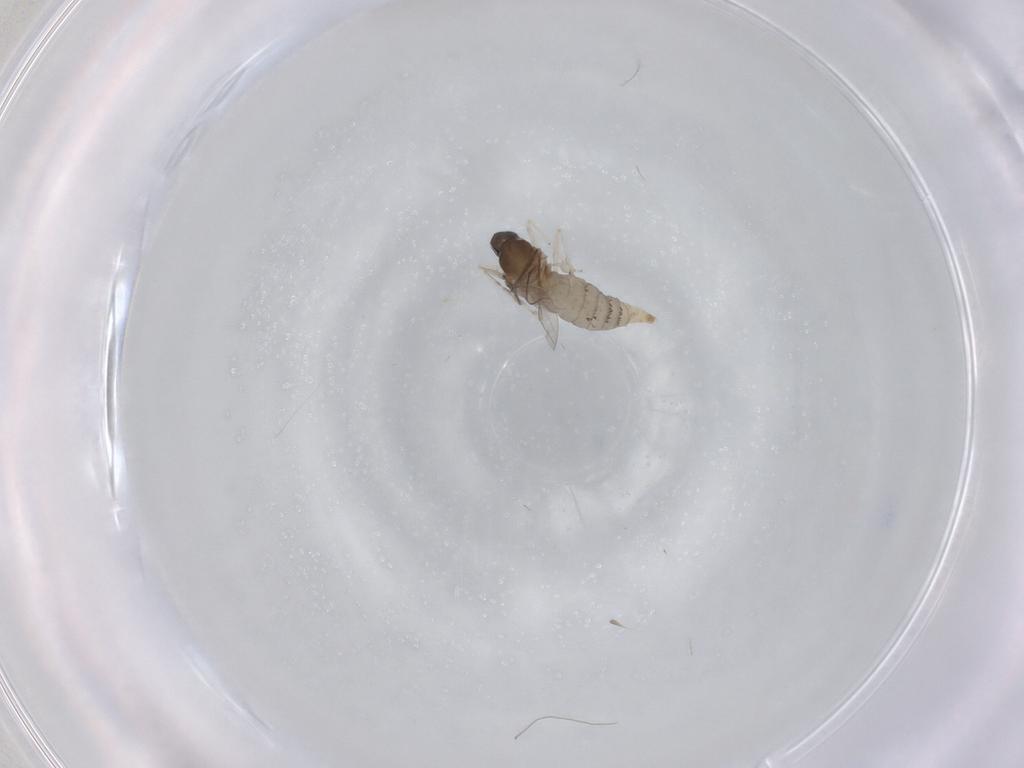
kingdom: Animalia
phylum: Arthropoda
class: Insecta
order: Diptera
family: Cecidomyiidae
